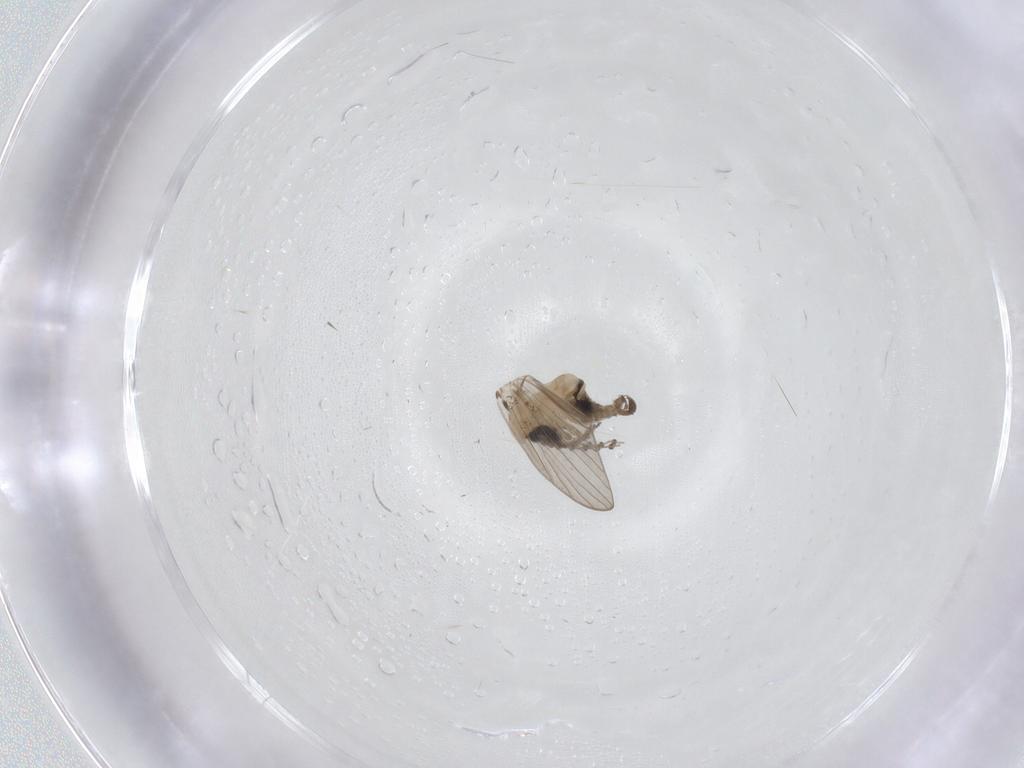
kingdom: Animalia
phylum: Arthropoda
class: Insecta
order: Diptera
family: Psychodidae
